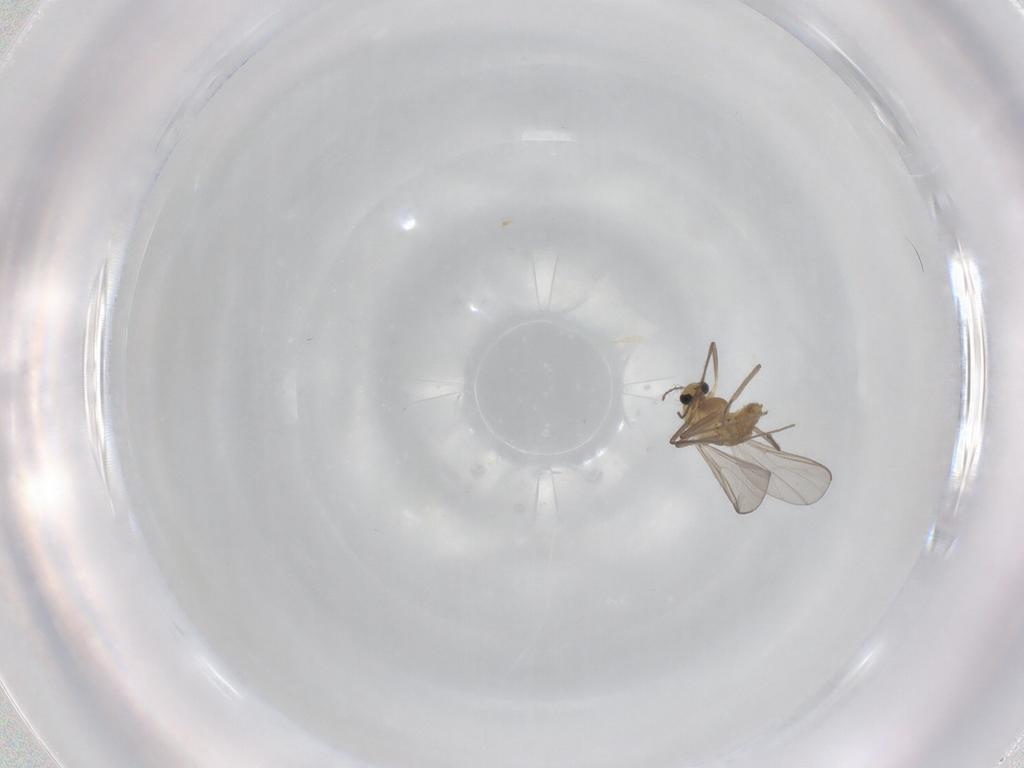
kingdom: Animalia
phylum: Arthropoda
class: Insecta
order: Diptera
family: Chironomidae
